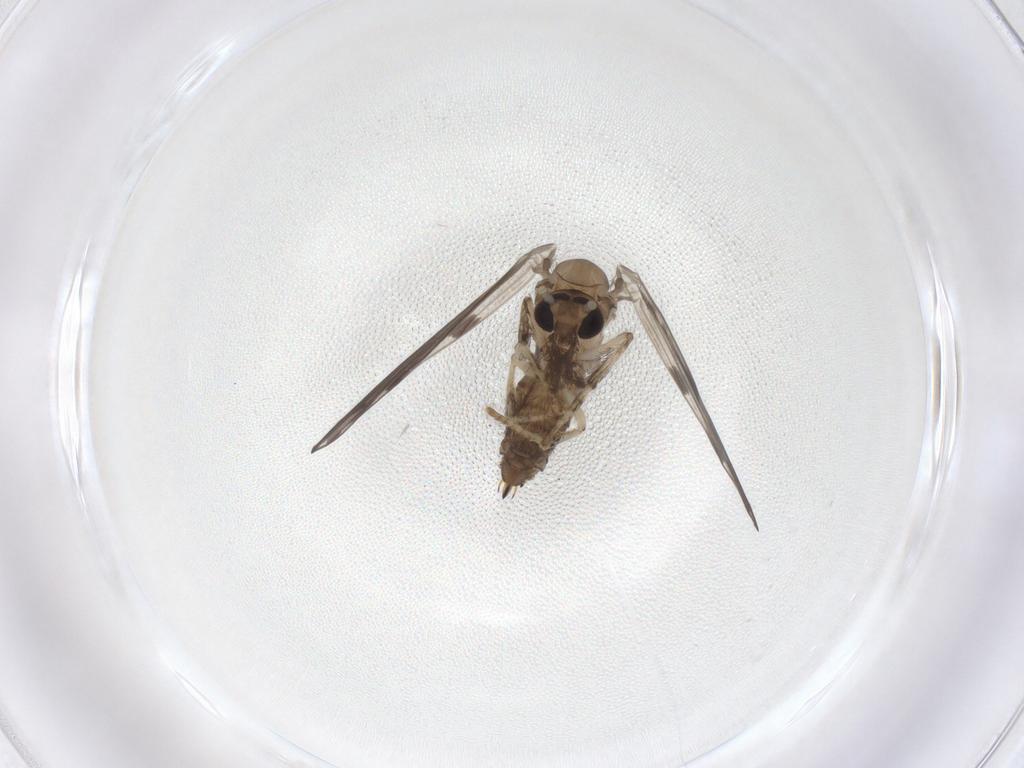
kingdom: Animalia
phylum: Arthropoda
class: Insecta
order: Diptera
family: Psychodidae
